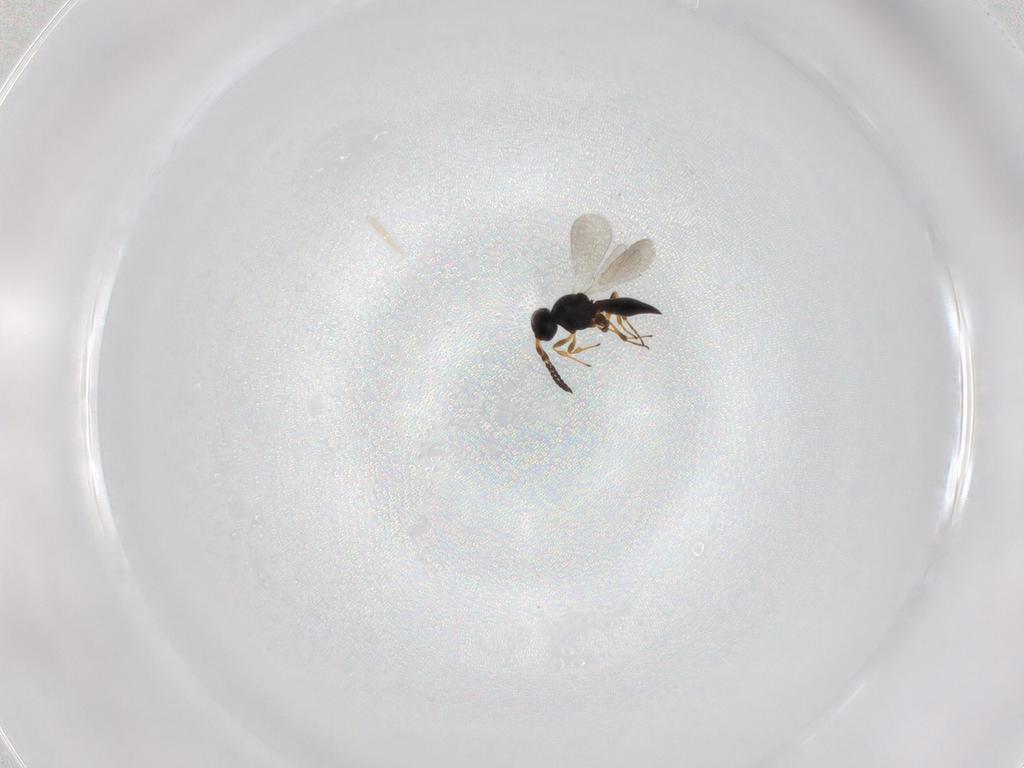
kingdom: Animalia
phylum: Arthropoda
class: Insecta
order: Hymenoptera
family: Platygastridae
